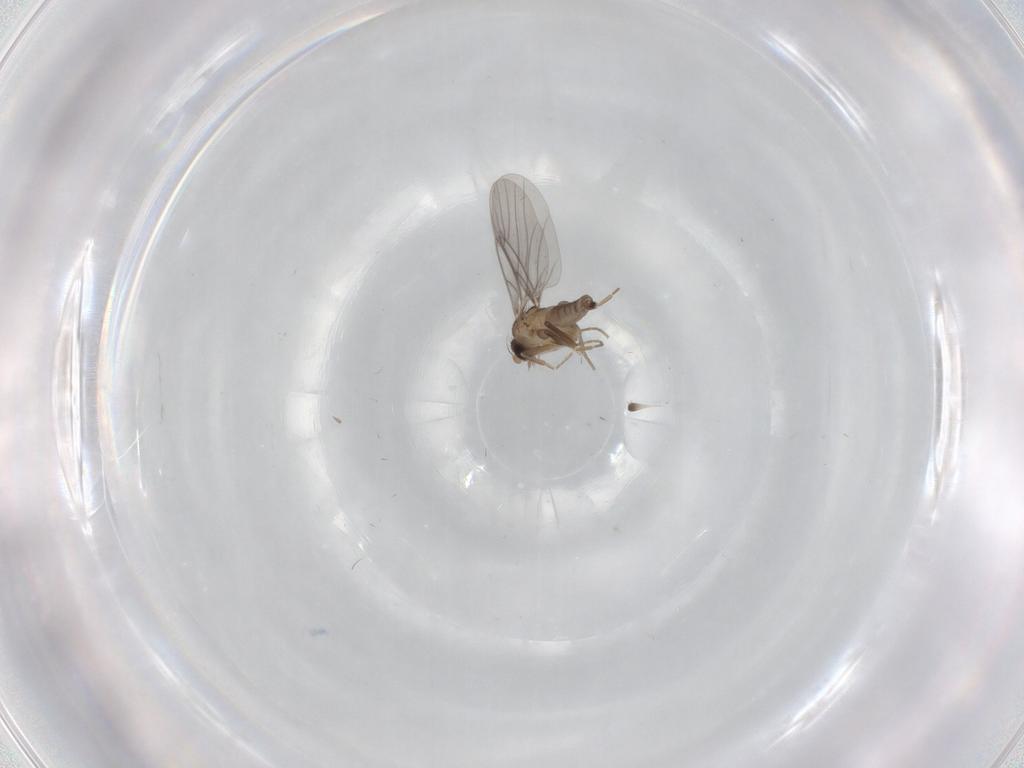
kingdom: Animalia
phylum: Arthropoda
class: Insecta
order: Diptera
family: Cecidomyiidae
